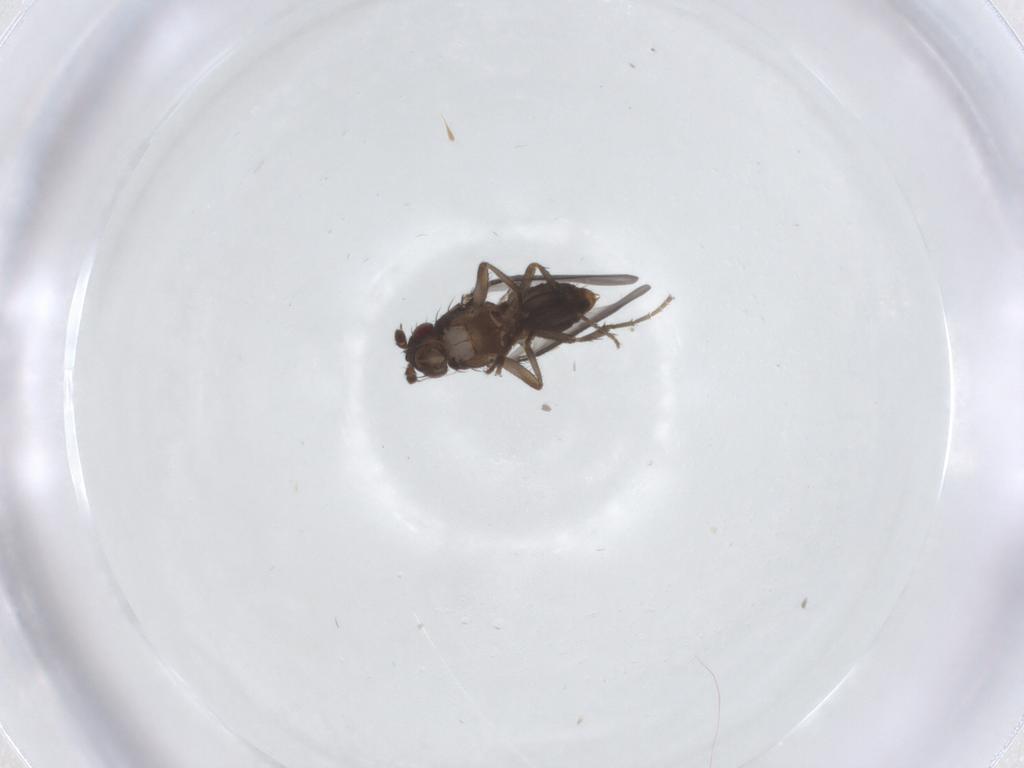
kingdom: Animalia
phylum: Arthropoda
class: Insecta
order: Diptera
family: Sphaeroceridae
